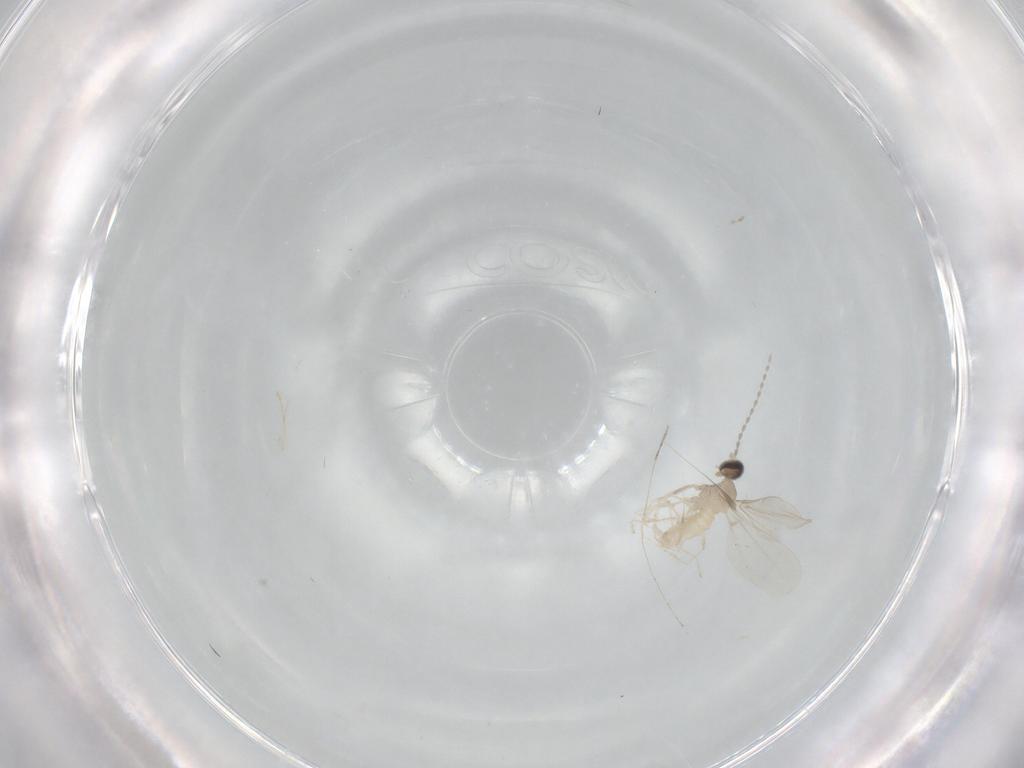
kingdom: Animalia
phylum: Arthropoda
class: Insecta
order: Diptera
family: Cecidomyiidae
